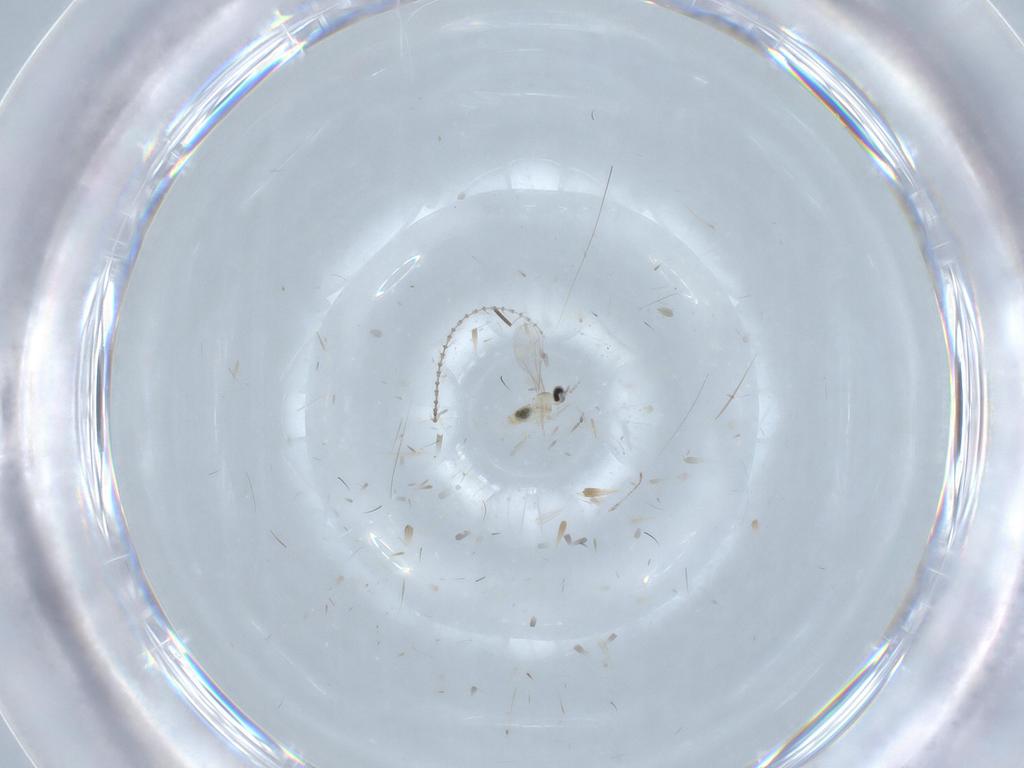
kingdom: Animalia
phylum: Arthropoda
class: Insecta
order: Diptera
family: Cecidomyiidae
